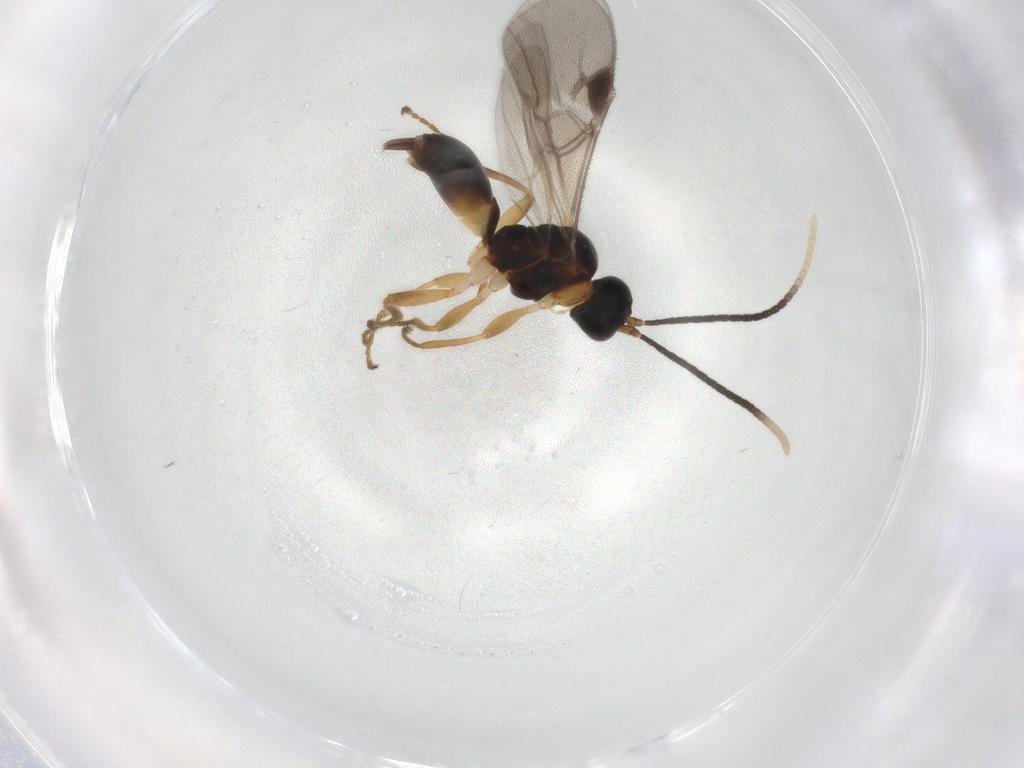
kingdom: Animalia
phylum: Arthropoda
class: Insecta
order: Hymenoptera
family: Braconidae
